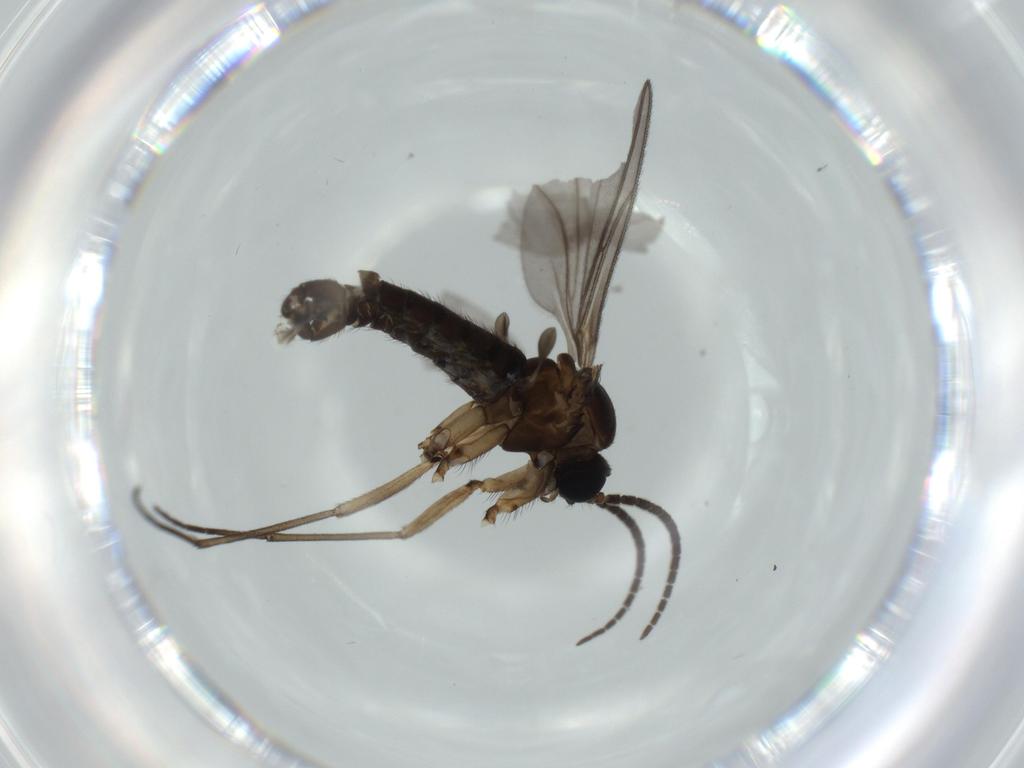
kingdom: Animalia
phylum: Arthropoda
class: Insecta
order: Diptera
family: Sciaridae
